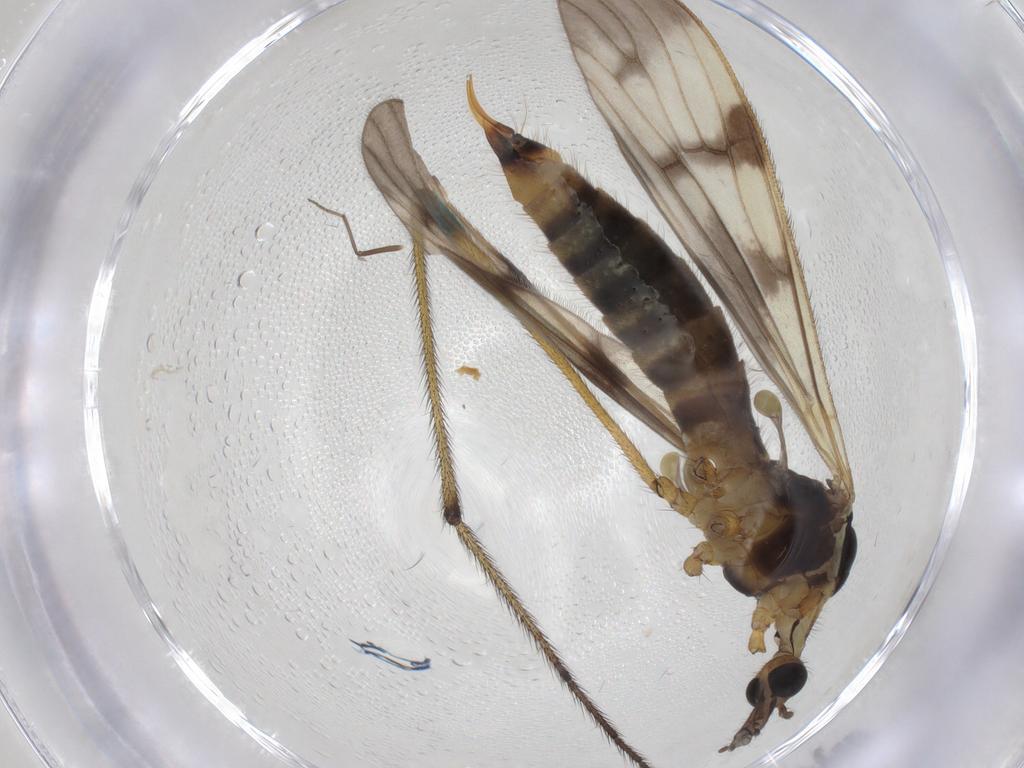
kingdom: Animalia
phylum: Arthropoda
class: Insecta
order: Diptera
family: Limoniidae
